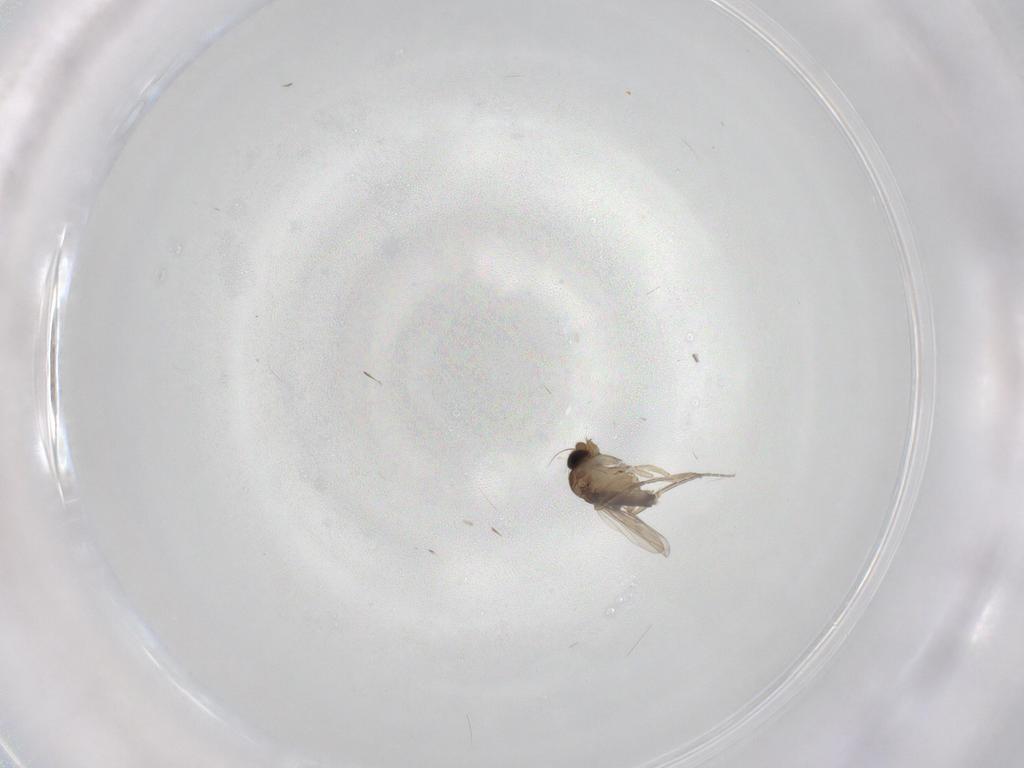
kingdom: Animalia
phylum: Arthropoda
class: Insecta
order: Diptera
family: Phoridae
